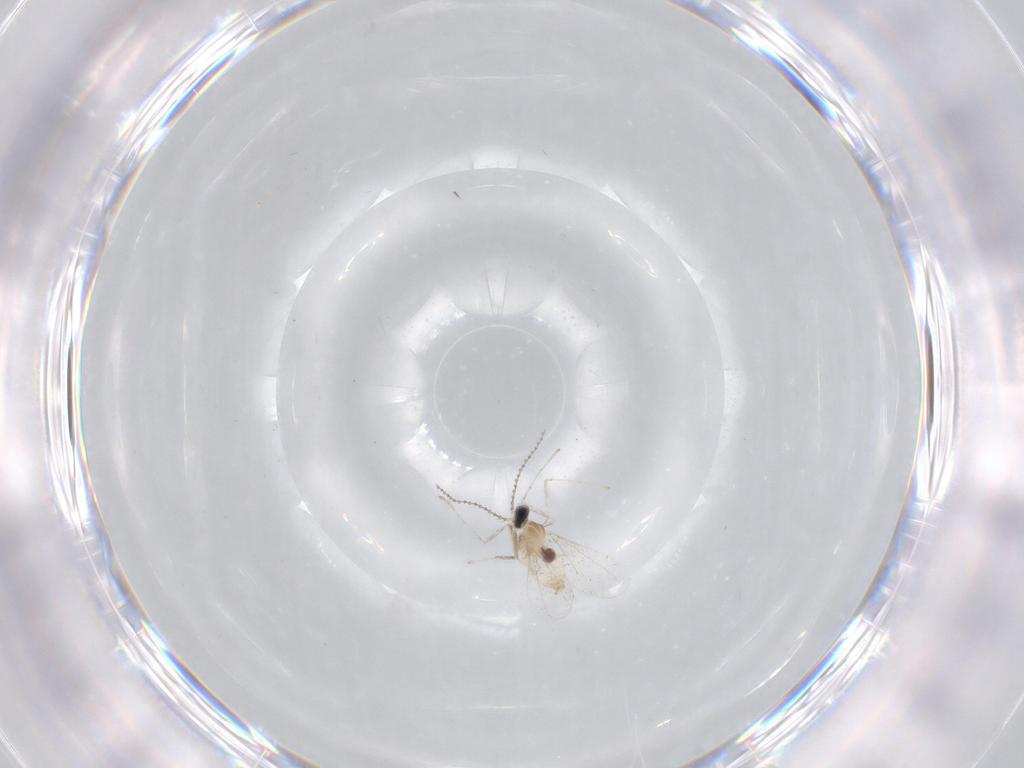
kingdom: Animalia
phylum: Arthropoda
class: Insecta
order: Diptera
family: Cecidomyiidae
